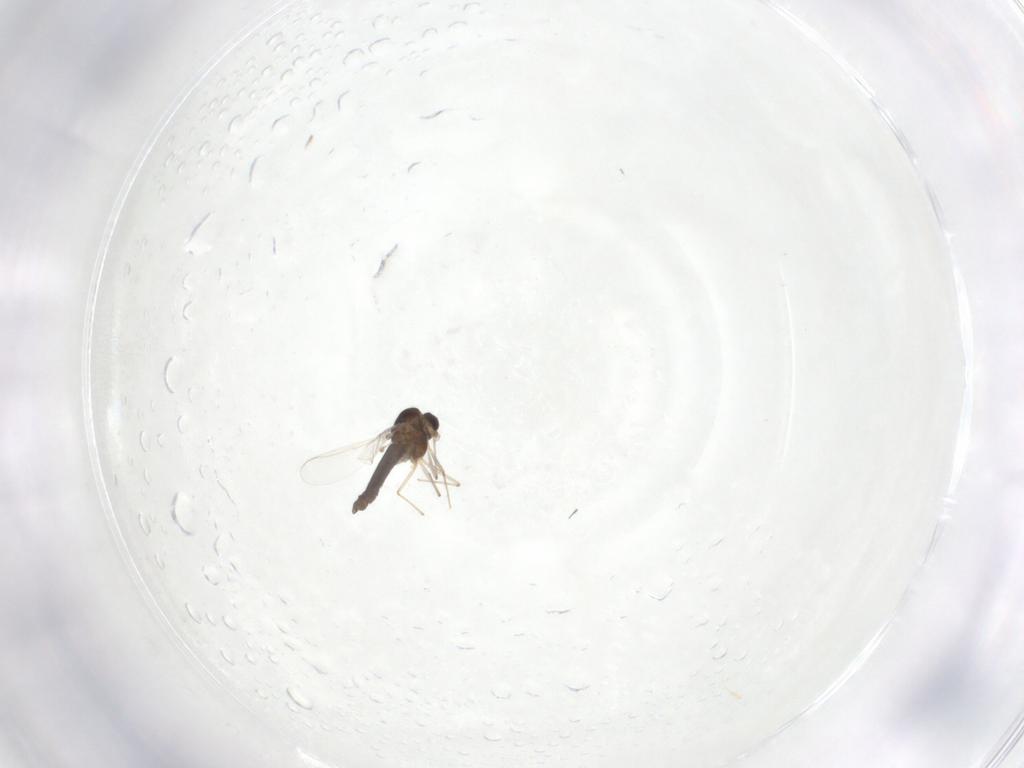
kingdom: Animalia
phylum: Arthropoda
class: Insecta
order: Diptera
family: Chironomidae
